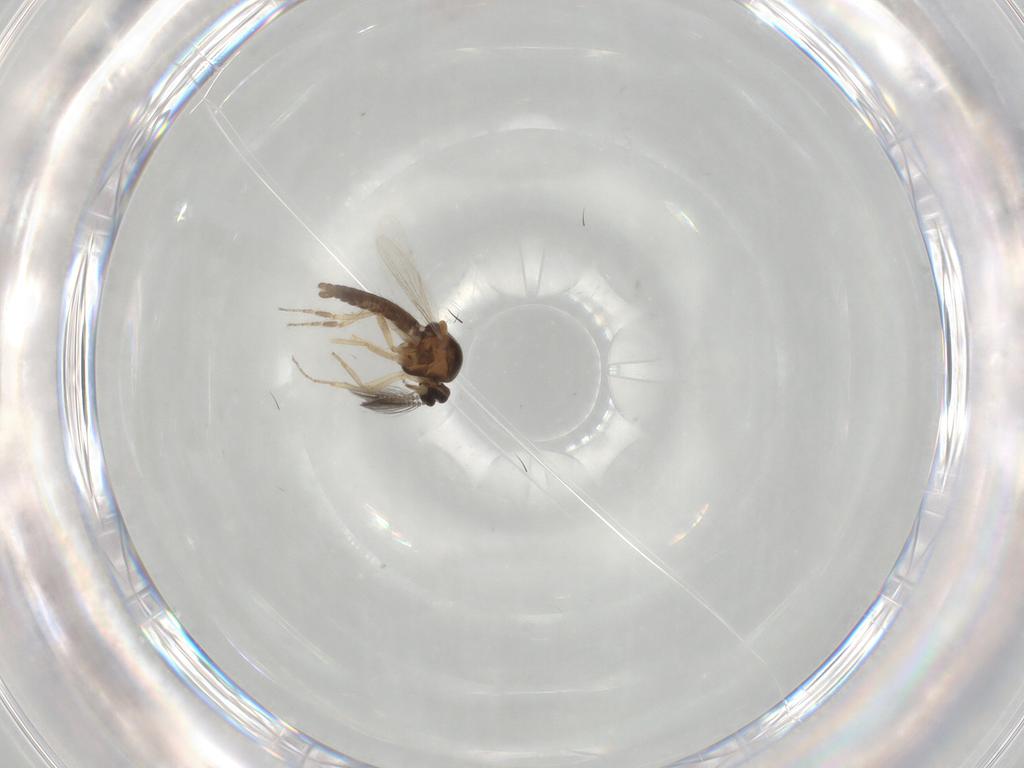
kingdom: Animalia
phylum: Arthropoda
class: Insecta
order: Diptera
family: Ceratopogonidae
